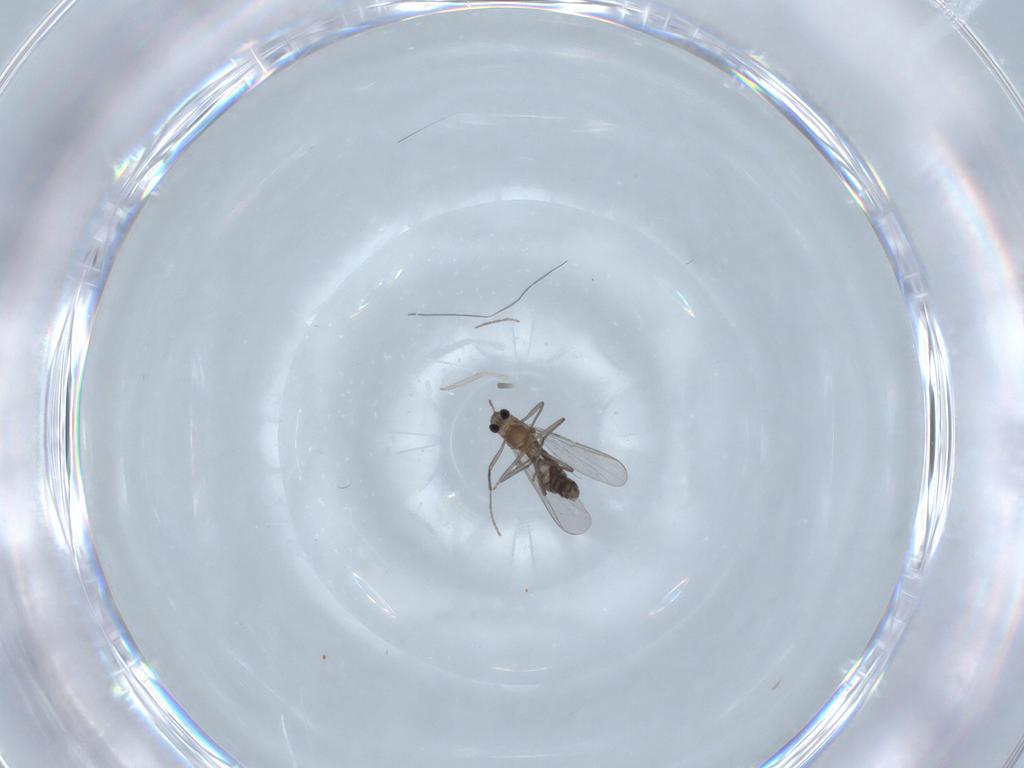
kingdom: Animalia
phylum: Arthropoda
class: Insecta
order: Diptera
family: Chironomidae
